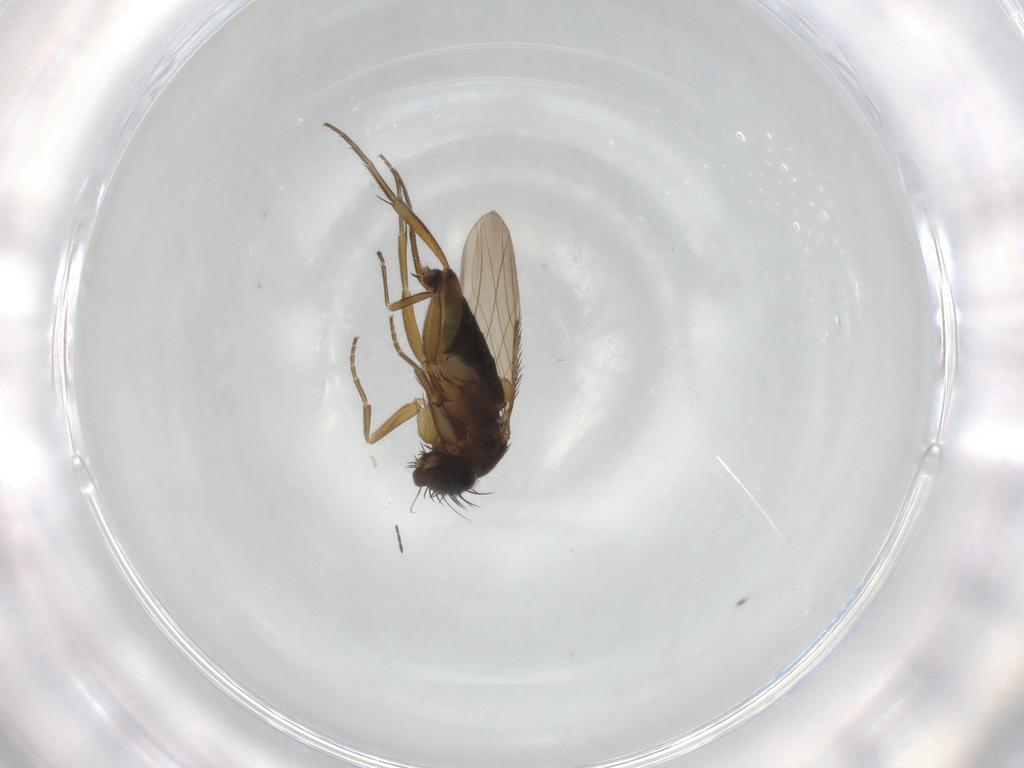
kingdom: Animalia
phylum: Arthropoda
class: Insecta
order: Diptera
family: Phoridae
